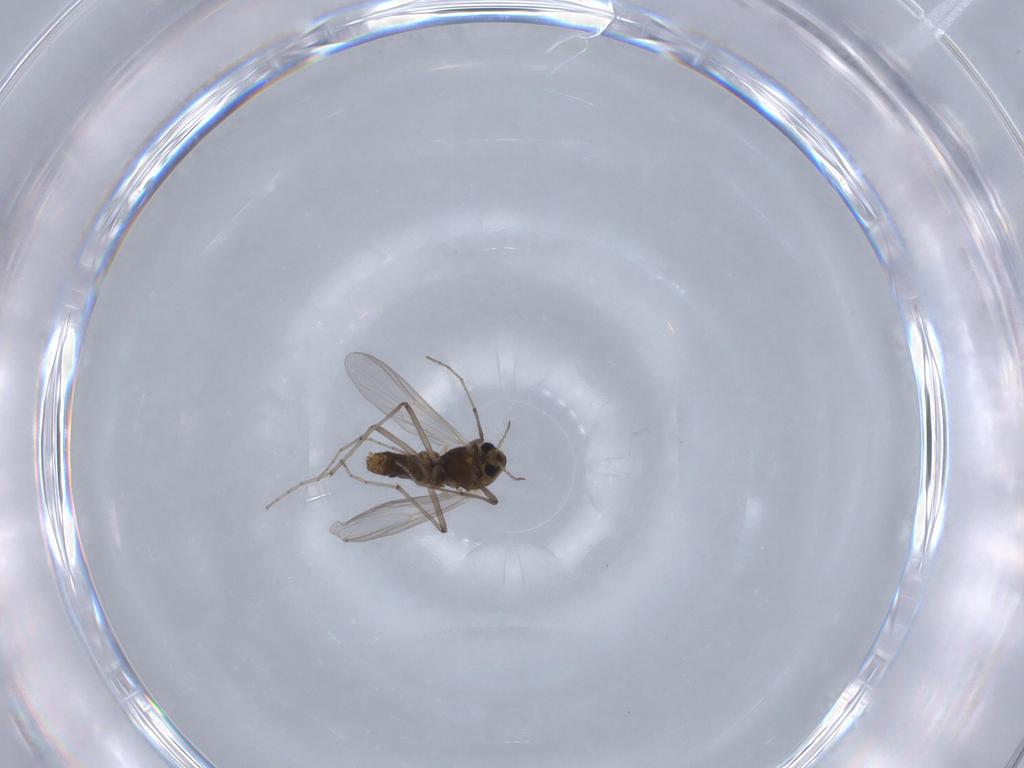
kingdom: Animalia
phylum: Arthropoda
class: Insecta
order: Diptera
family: Chironomidae
